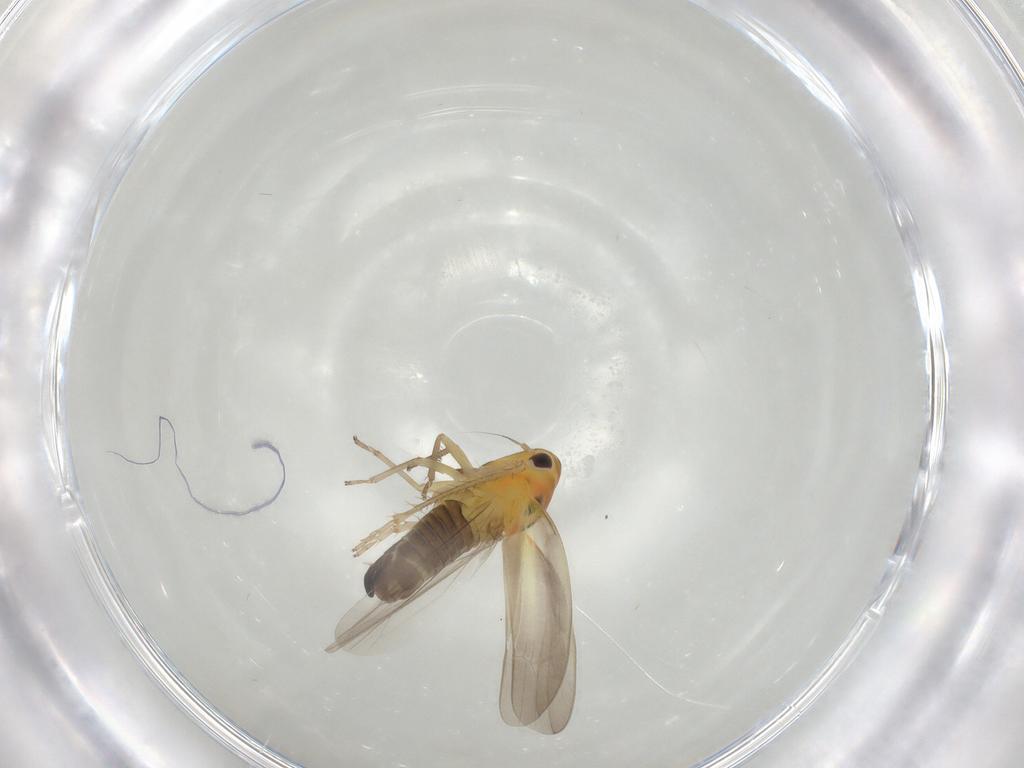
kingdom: Animalia
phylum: Arthropoda
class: Insecta
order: Hemiptera
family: Cicadellidae
